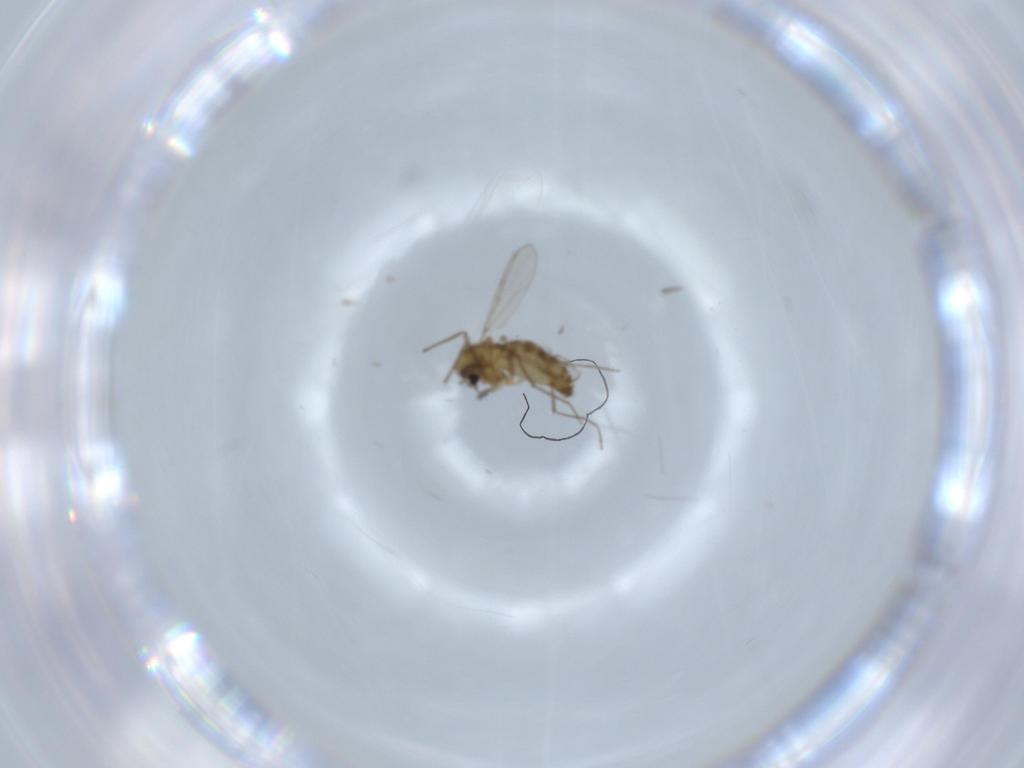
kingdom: Animalia
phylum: Arthropoda
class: Insecta
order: Diptera
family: Chironomidae
